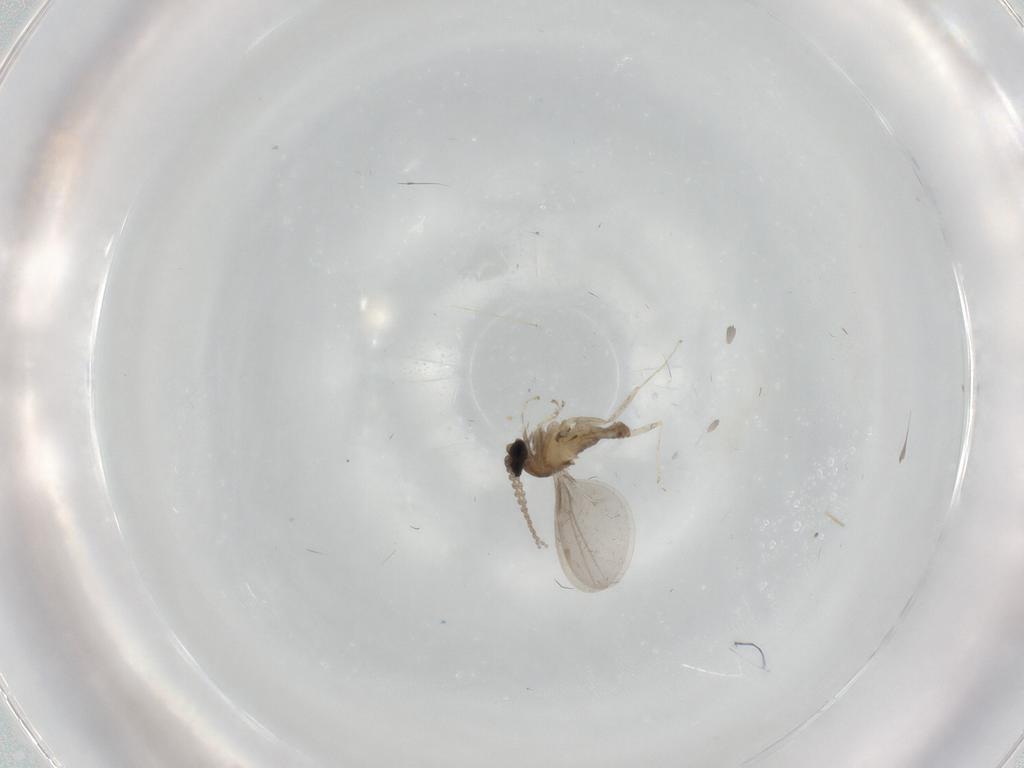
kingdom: Animalia
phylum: Arthropoda
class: Insecta
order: Diptera
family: Cecidomyiidae
